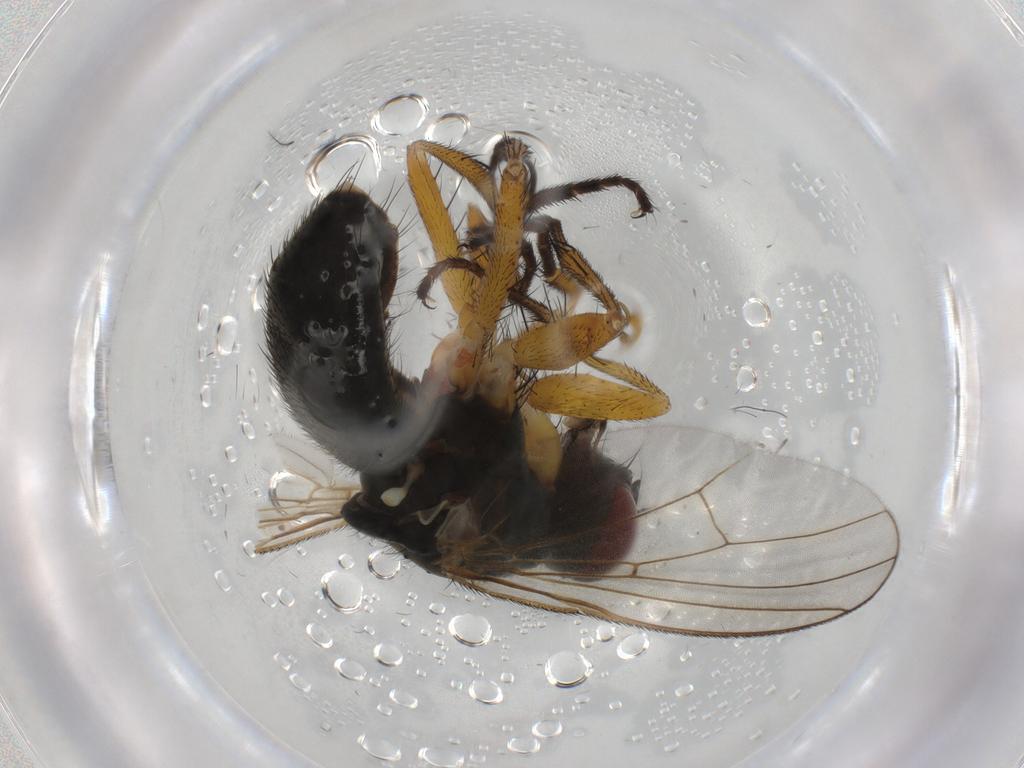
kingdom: Animalia
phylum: Arthropoda
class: Insecta
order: Diptera
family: Muscidae
